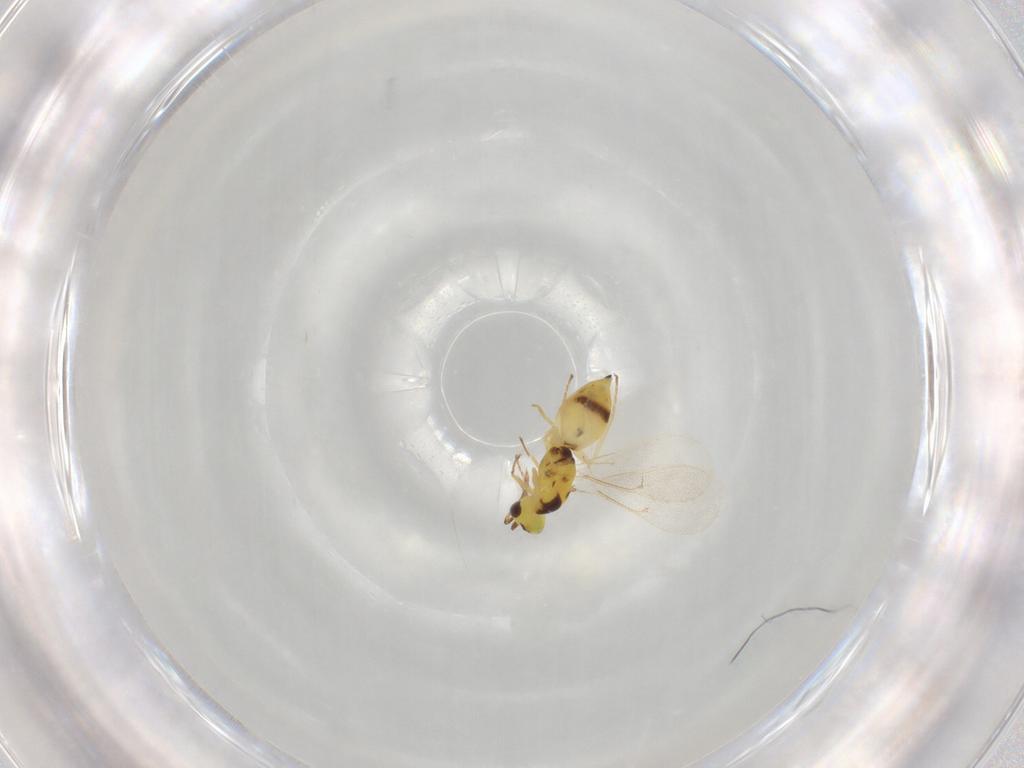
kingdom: Animalia
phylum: Arthropoda
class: Insecta
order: Hymenoptera
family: Eulophidae
